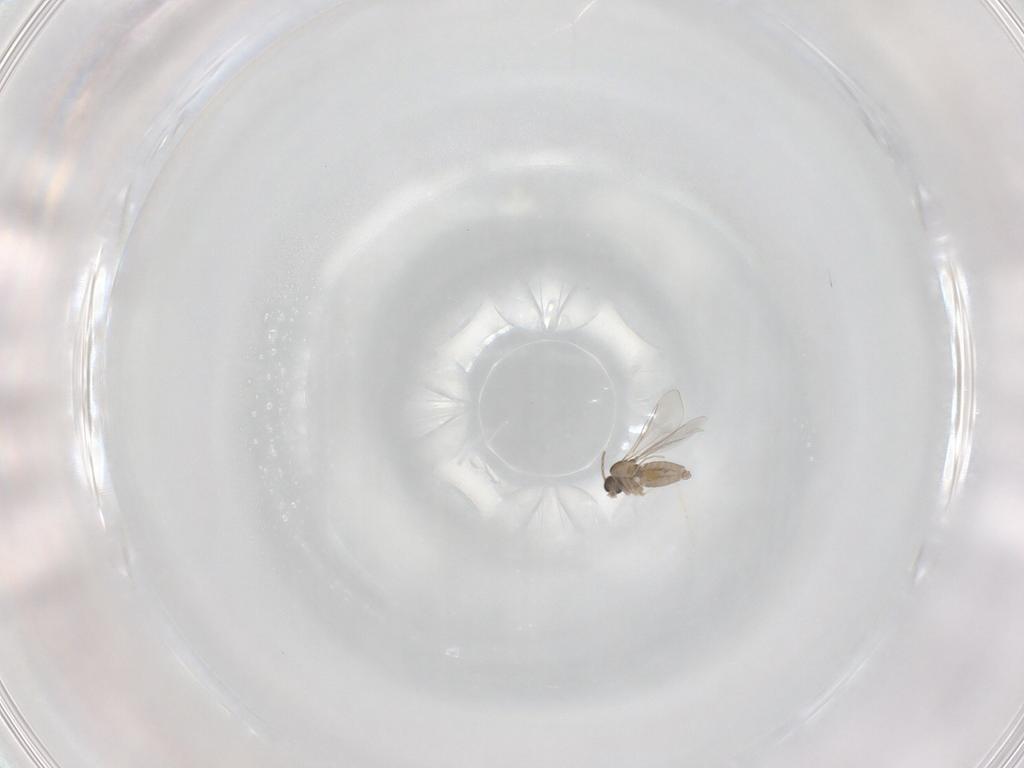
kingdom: Animalia
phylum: Arthropoda
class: Insecta
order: Diptera
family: Cecidomyiidae
